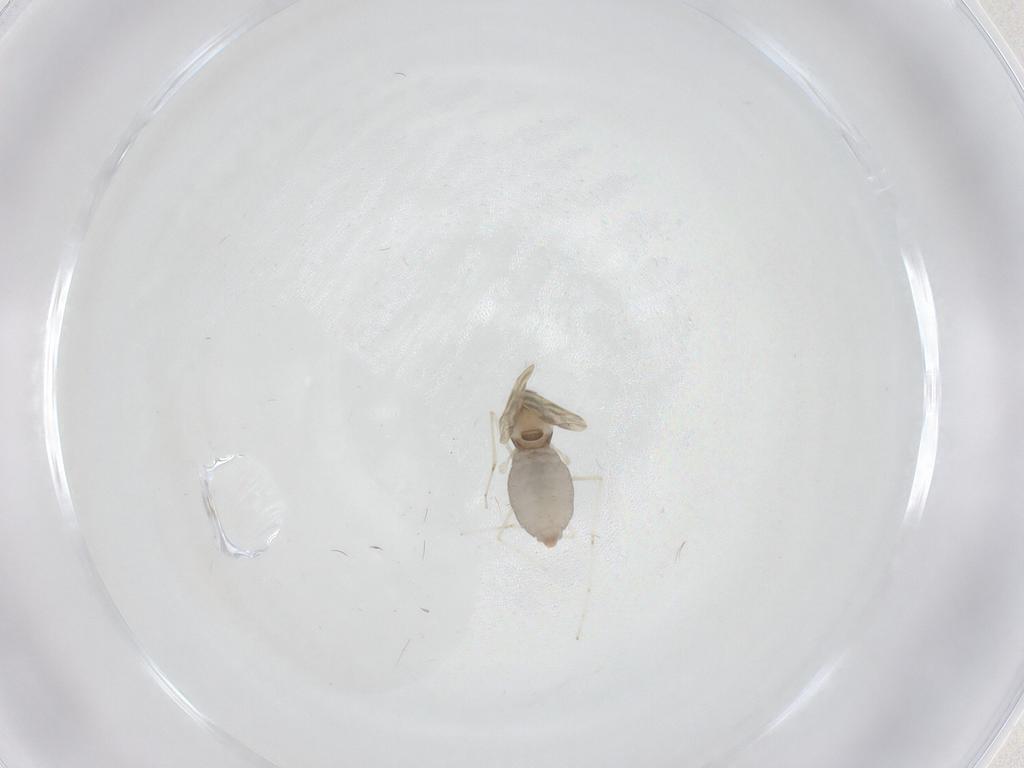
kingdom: Animalia
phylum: Arthropoda
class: Insecta
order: Diptera
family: Cecidomyiidae
